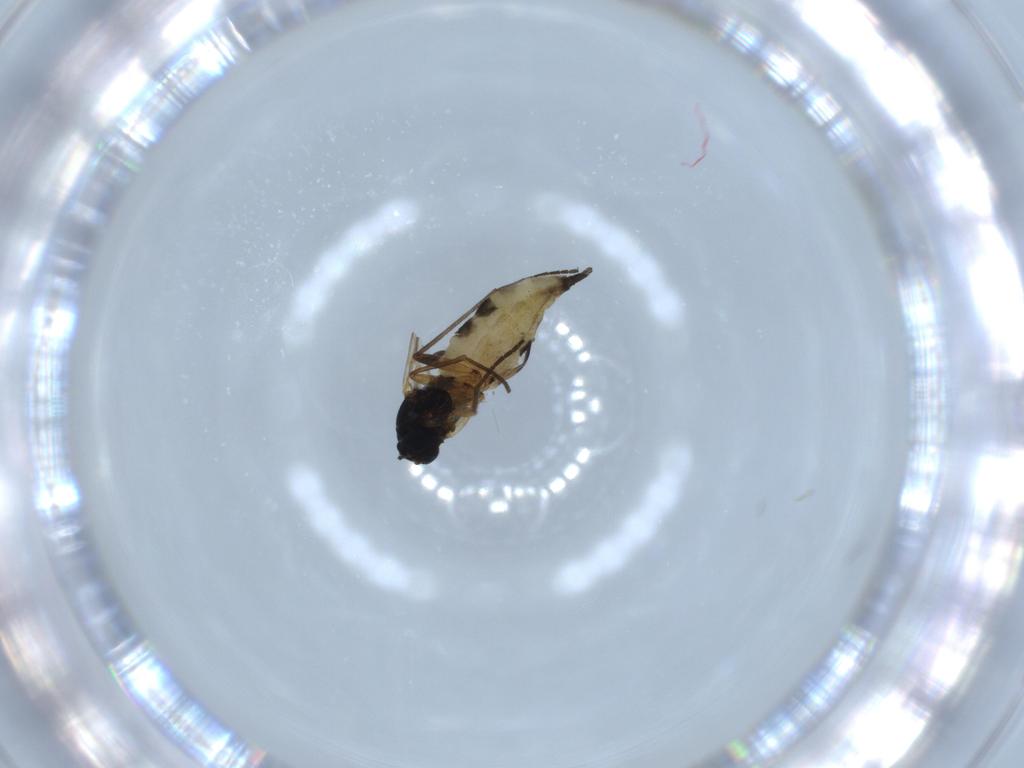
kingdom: Animalia
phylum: Arthropoda
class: Insecta
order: Diptera
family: Sciaridae
